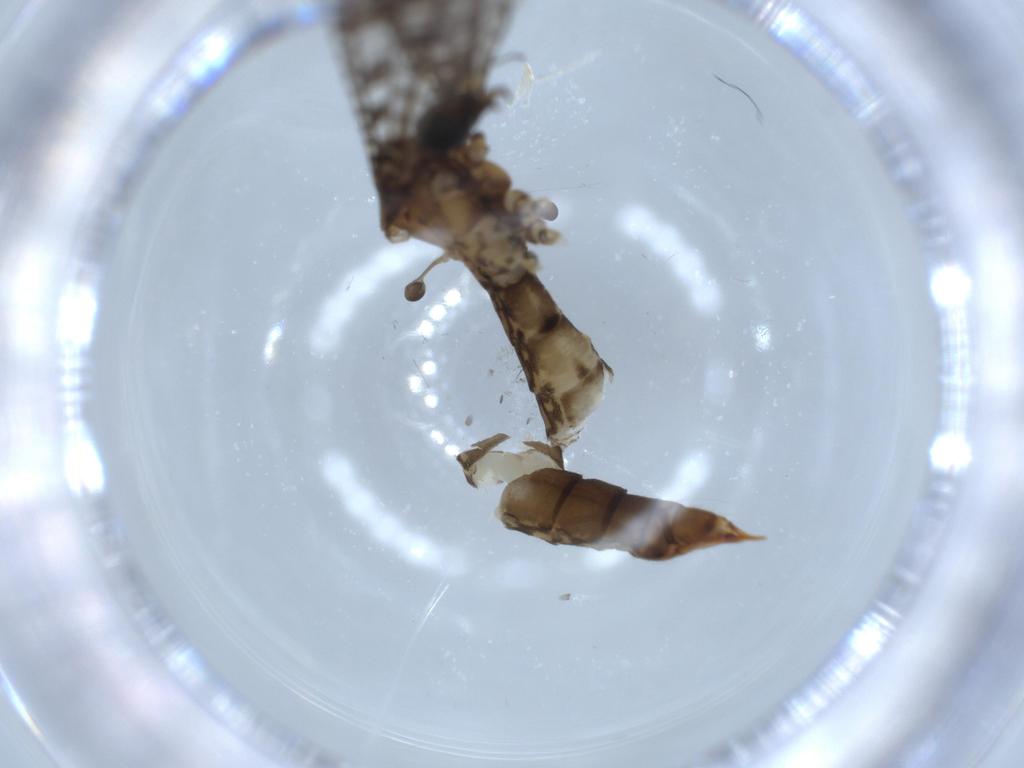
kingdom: Animalia
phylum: Arthropoda
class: Insecta
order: Diptera
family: Limoniidae
